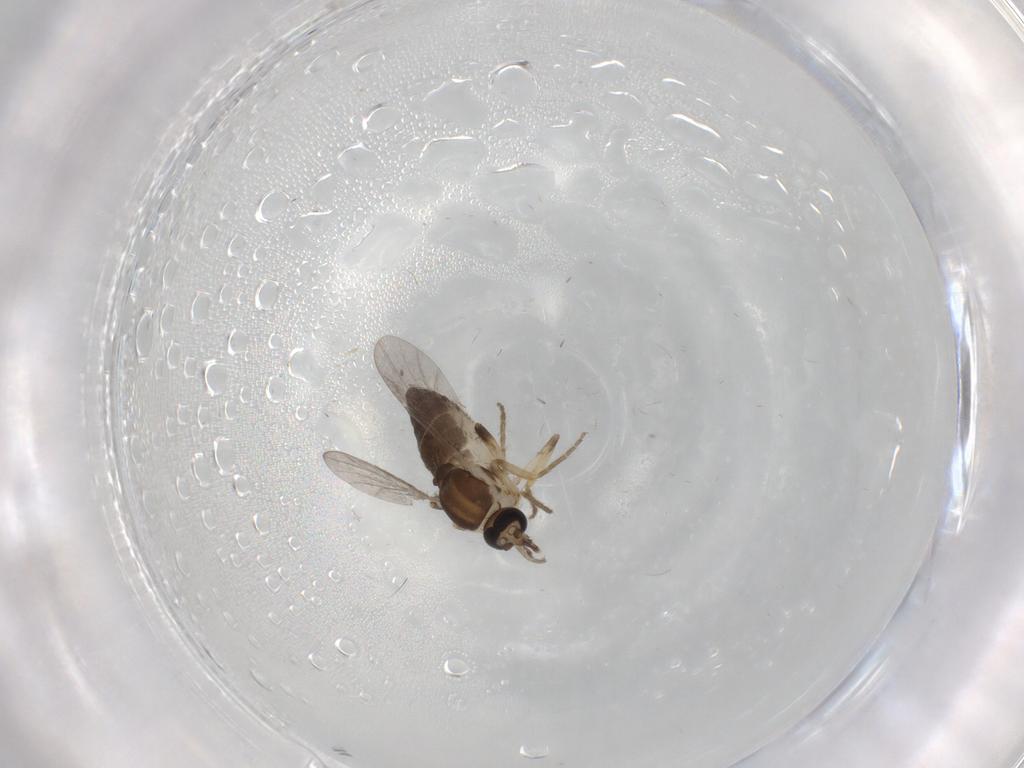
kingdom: Animalia
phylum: Arthropoda
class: Insecta
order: Diptera
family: Ceratopogonidae
